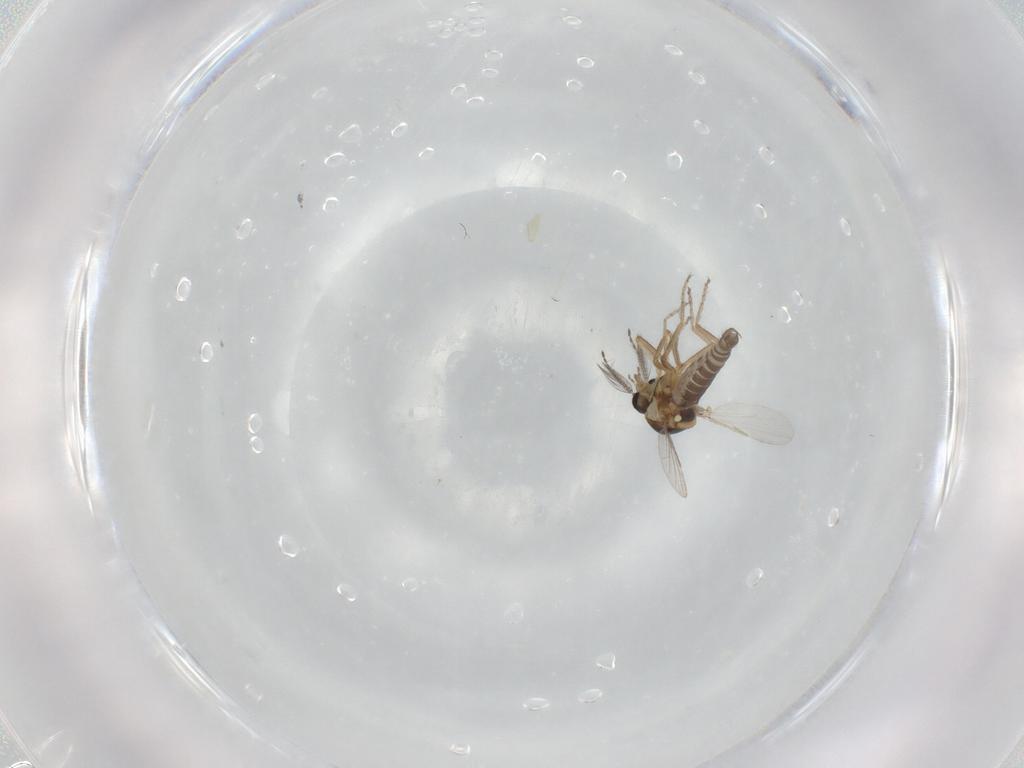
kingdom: Animalia
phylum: Arthropoda
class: Insecta
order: Diptera
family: Ceratopogonidae
